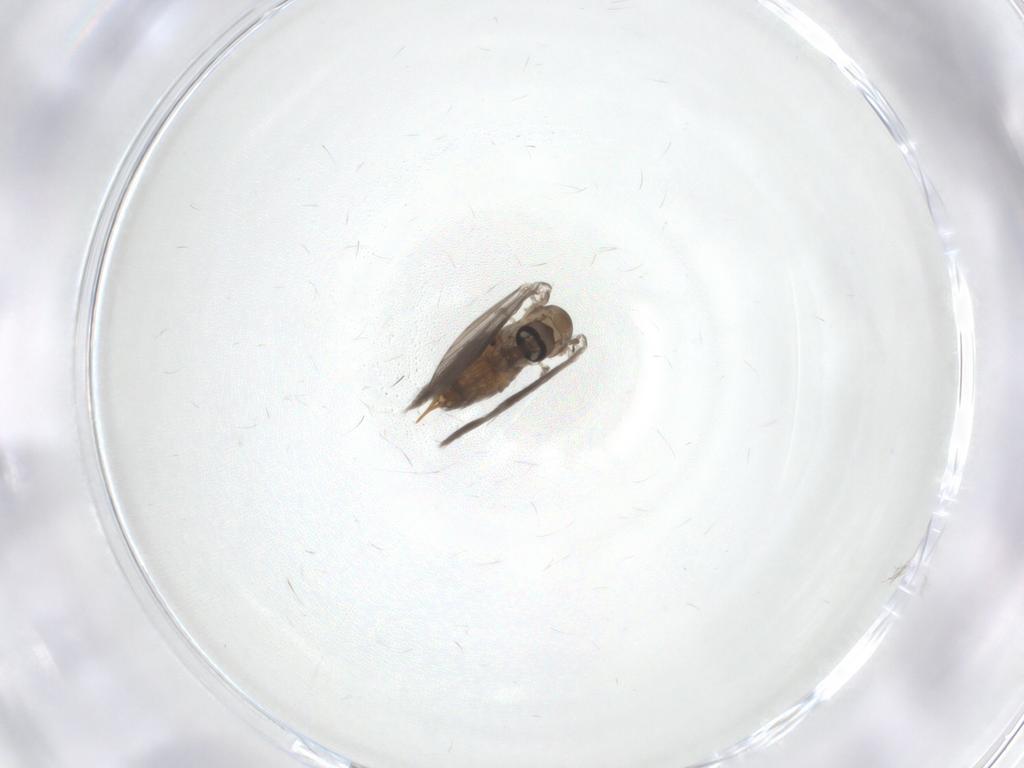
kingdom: Animalia
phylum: Arthropoda
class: Insecta
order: Diptera
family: Psychodidae
